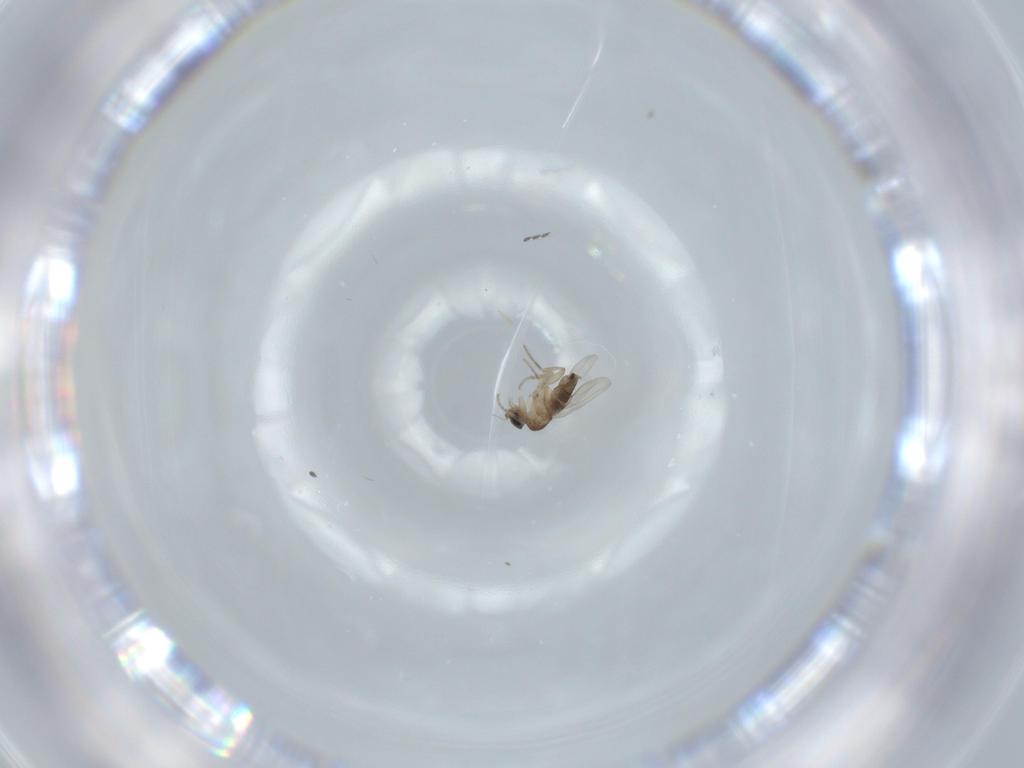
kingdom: Animalia
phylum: Arthropoda
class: Insecta
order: Diptera
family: Phoridae
